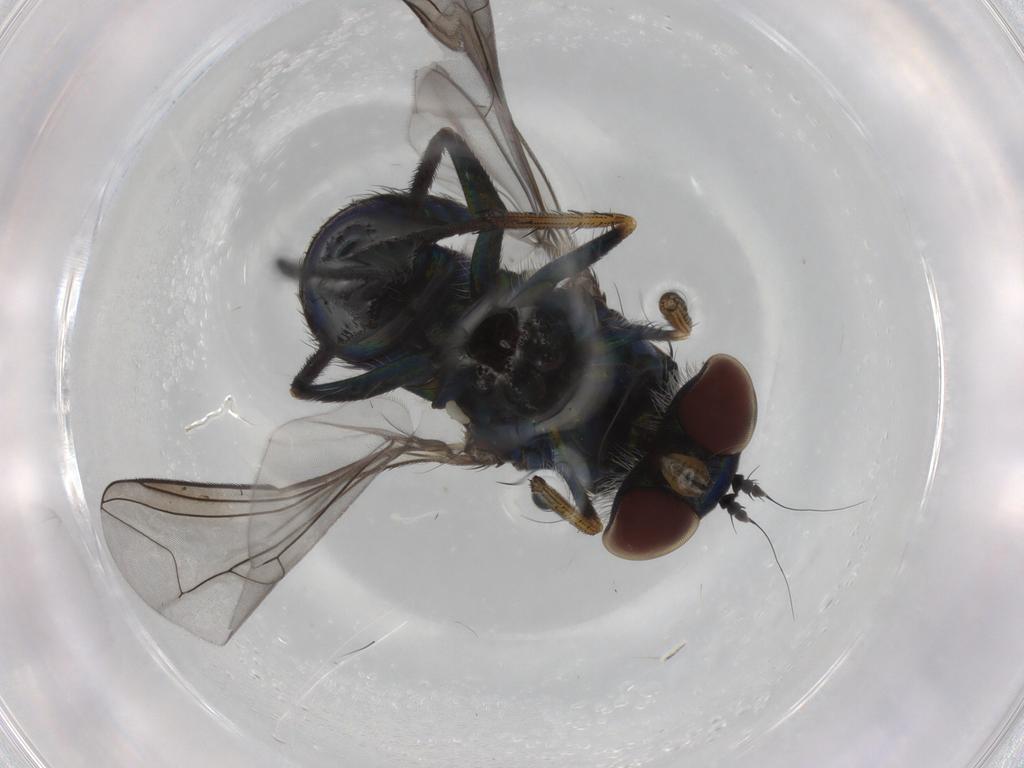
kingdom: Animalia
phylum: Arthropoda
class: Insecta
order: Diptera
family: Dolichopodidae
